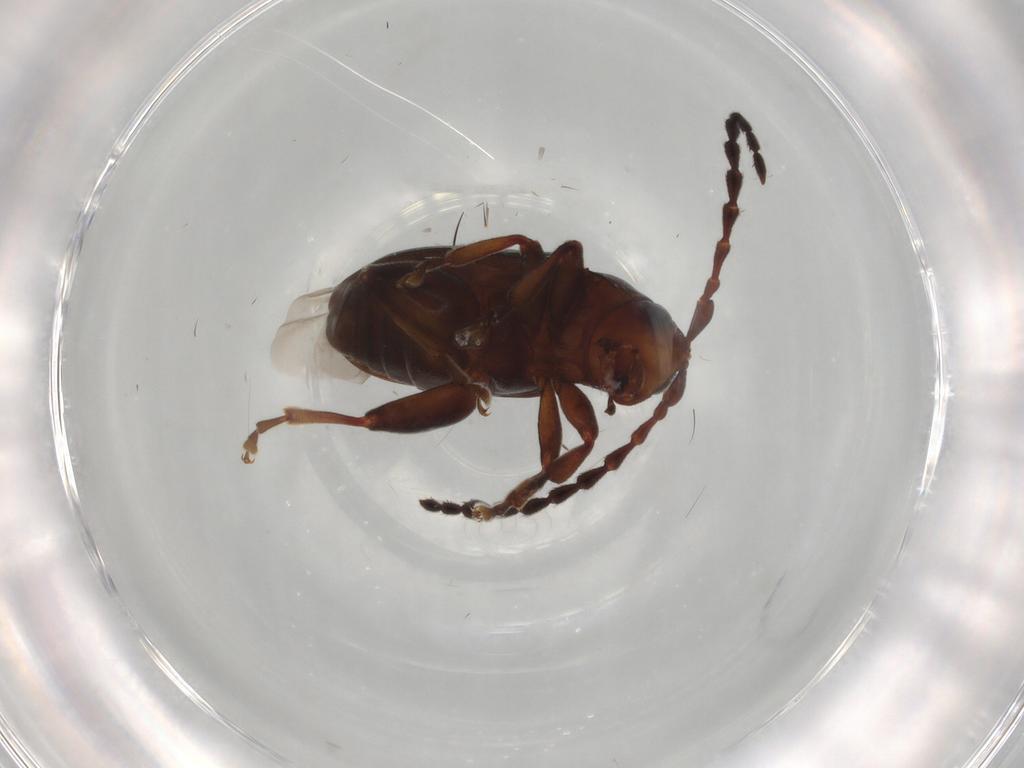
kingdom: Animalia
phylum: Arthropoda
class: Insecta
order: Coleoptera
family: Chrysomelidae
